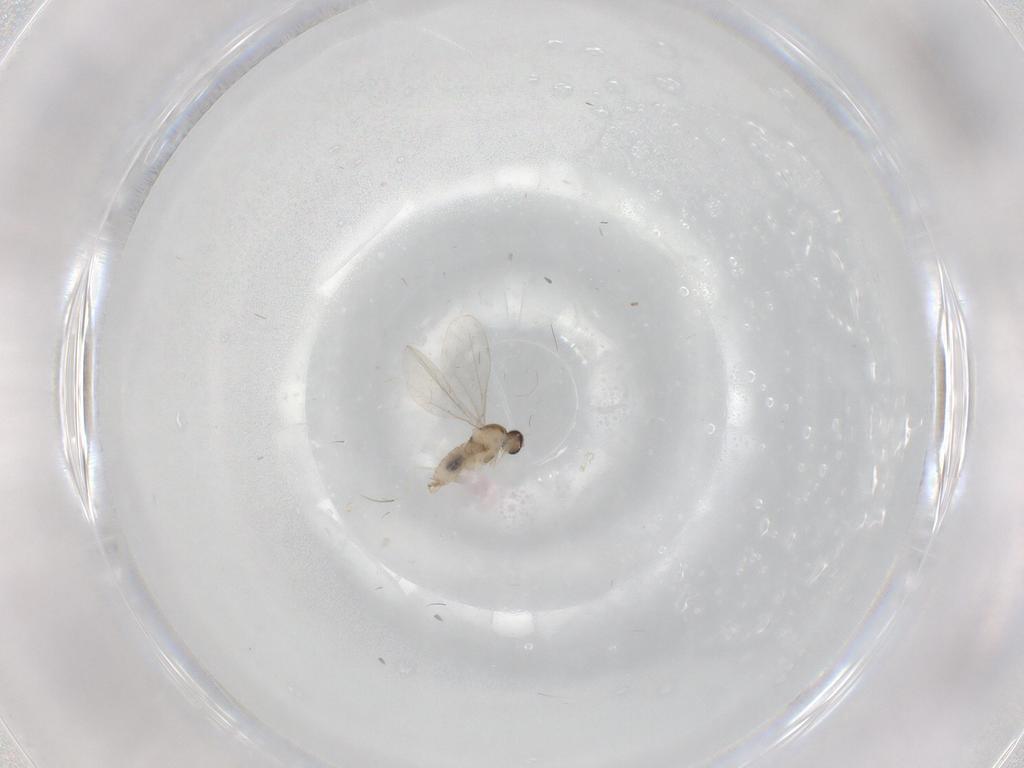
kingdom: Animalia
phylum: Arthropoda
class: Insecta
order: Diptera
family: Cecidomyiidae
